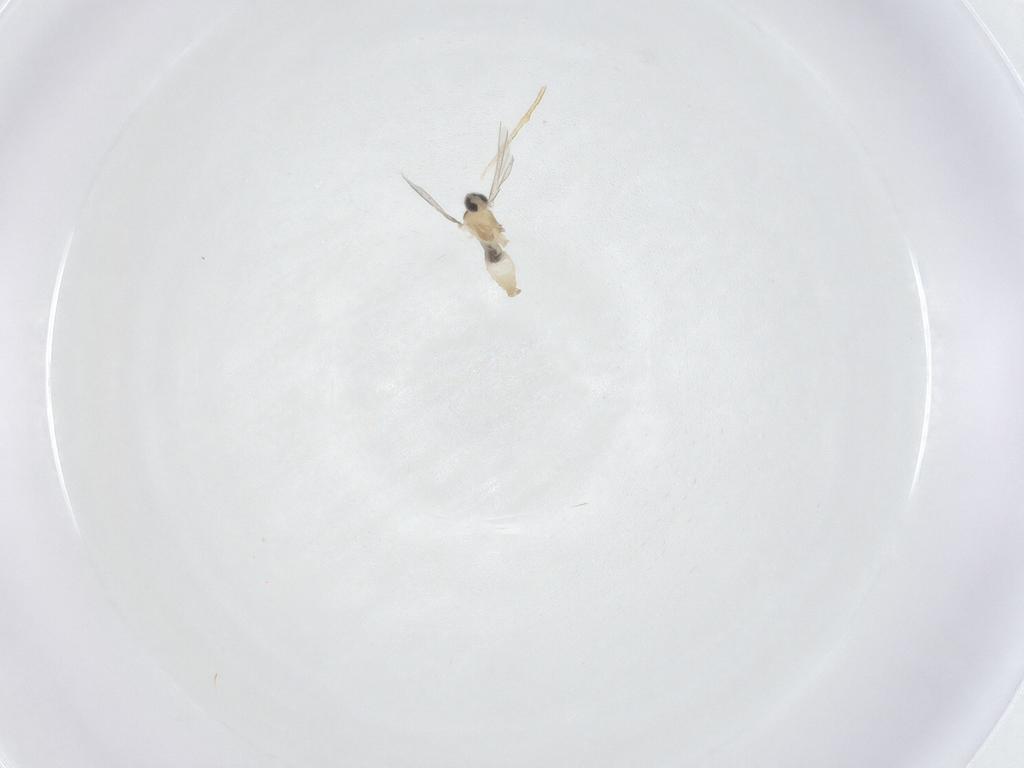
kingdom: Animalia
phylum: Arthropoda
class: Insecta
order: Diptera
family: Cecidomyiidae
